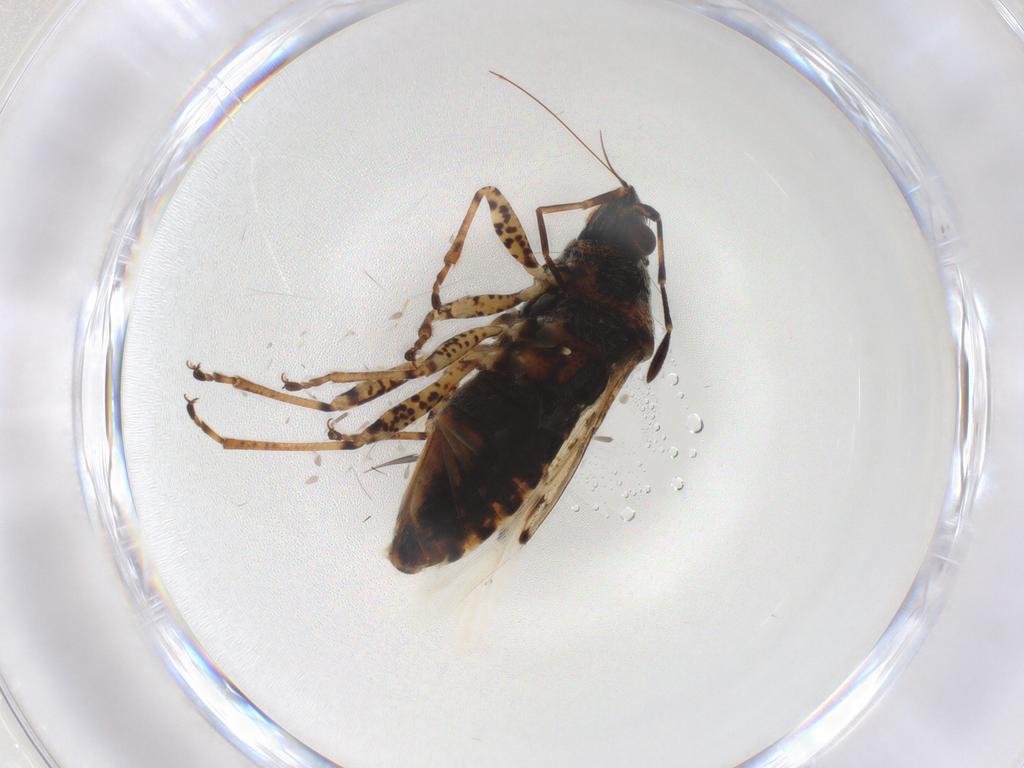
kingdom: Animalia
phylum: Arthropoda
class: Insecta
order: Hemiptera
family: Lygaeidae
